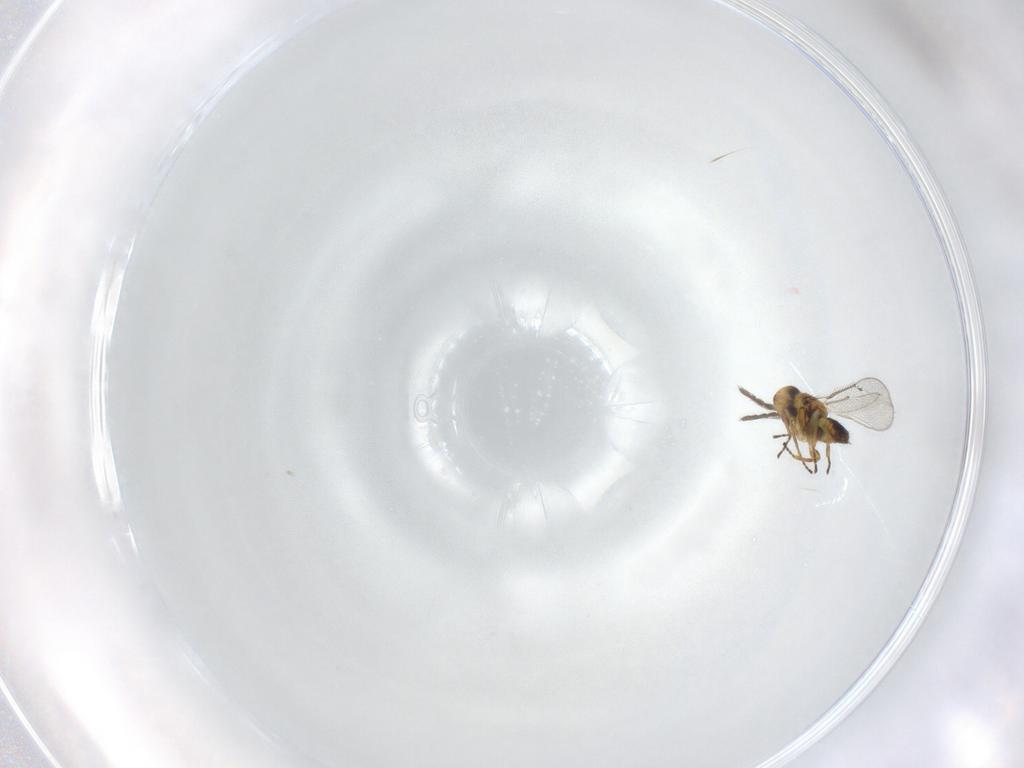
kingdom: Animalia
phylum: Arthropoda
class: Insecta
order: Hymenoptera
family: Eulophidae
